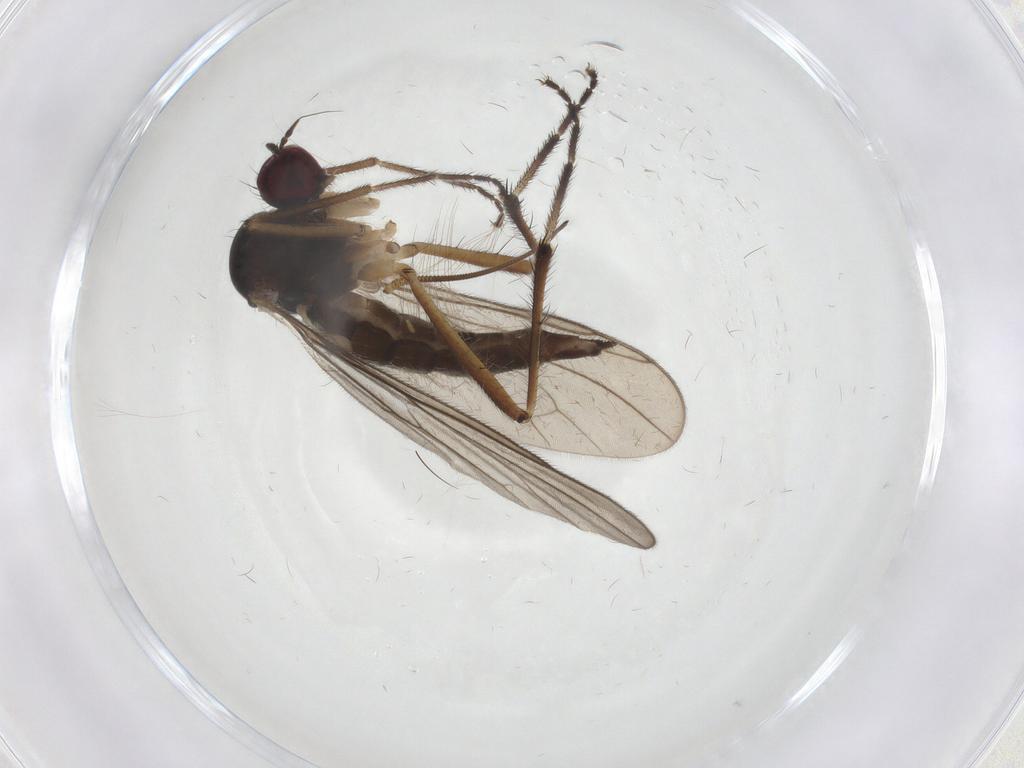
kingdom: Animalia
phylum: Arthropoda
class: Insecta
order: Diptera
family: Hybotidae
